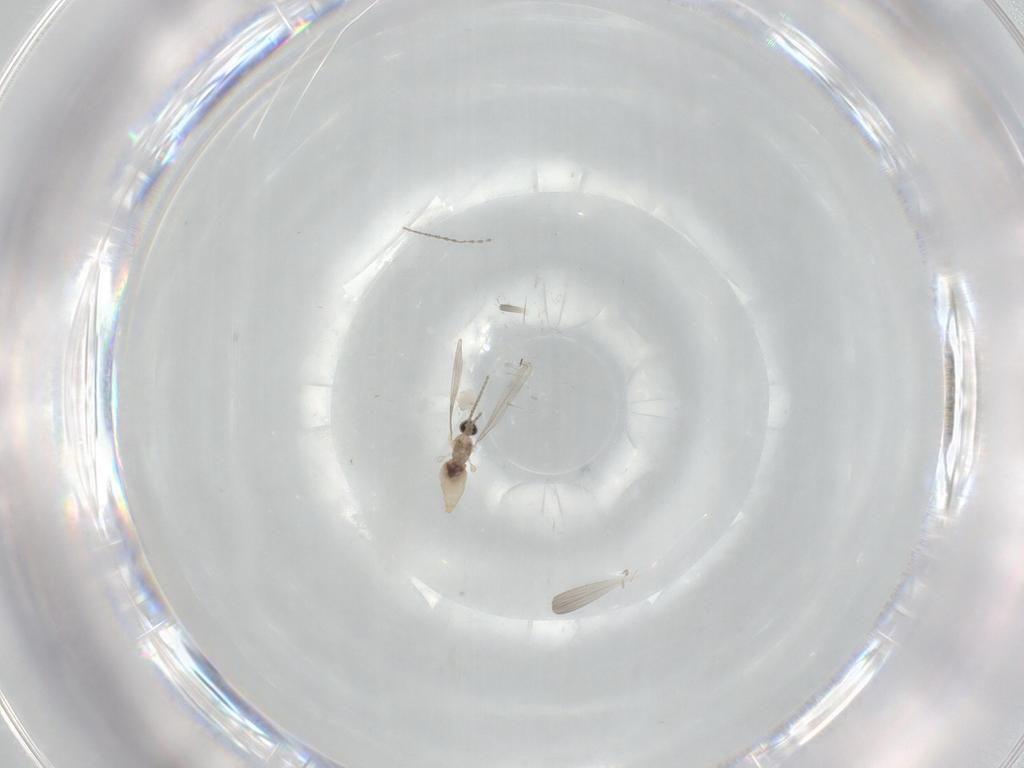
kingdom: Animalia
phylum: Arthropoda
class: Insecta
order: Diptera
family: Cecidomyiidae
